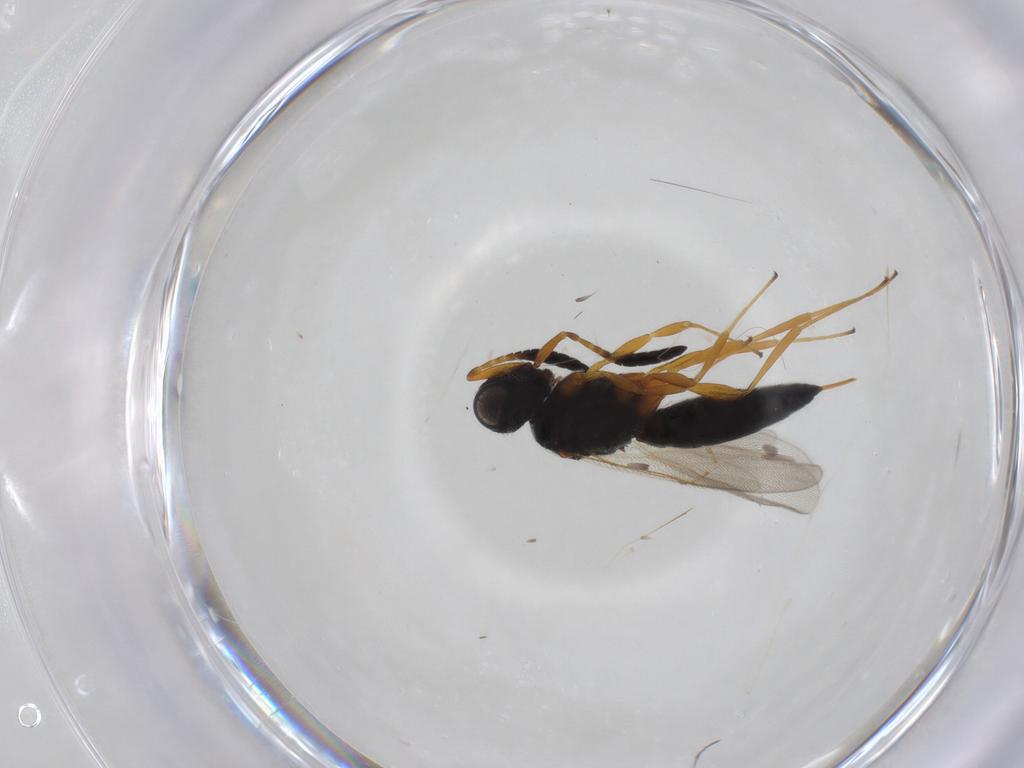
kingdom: Animalia
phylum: Arthropoda
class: Insecta
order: Hymenoptera
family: Scelionidae
